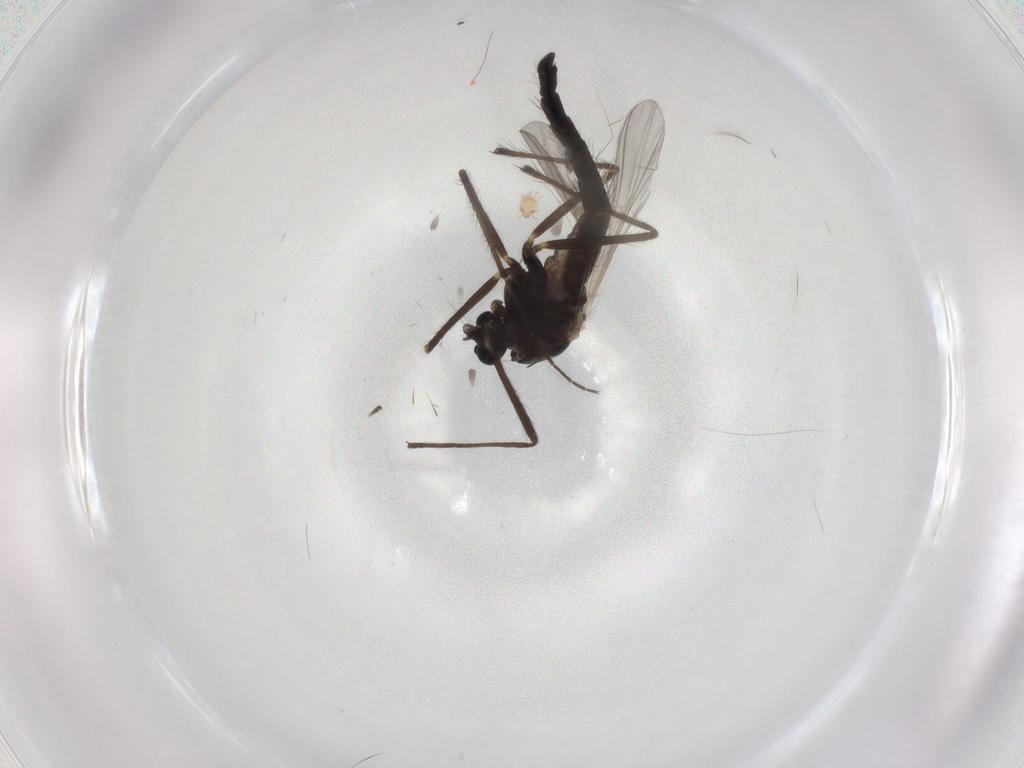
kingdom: Animalia
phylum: Arthropoda
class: Insecta
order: Diptera
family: Chironomidae
